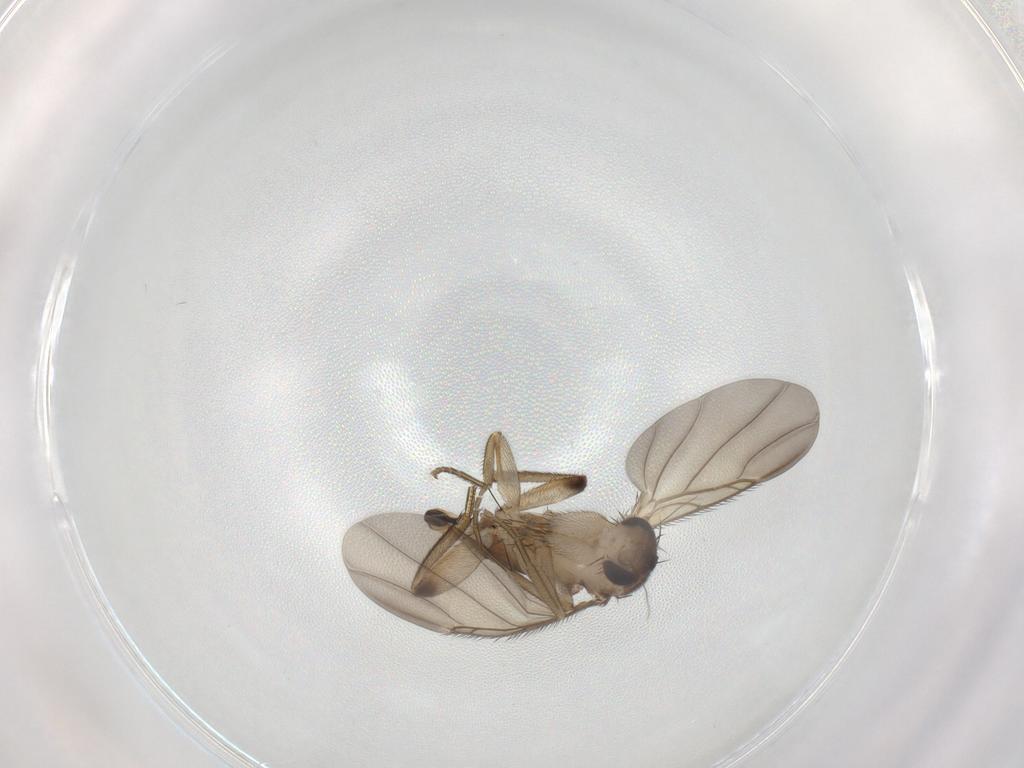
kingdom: Animalia
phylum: Arthropoda
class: Insecta
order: Diptera
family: Phoridae
